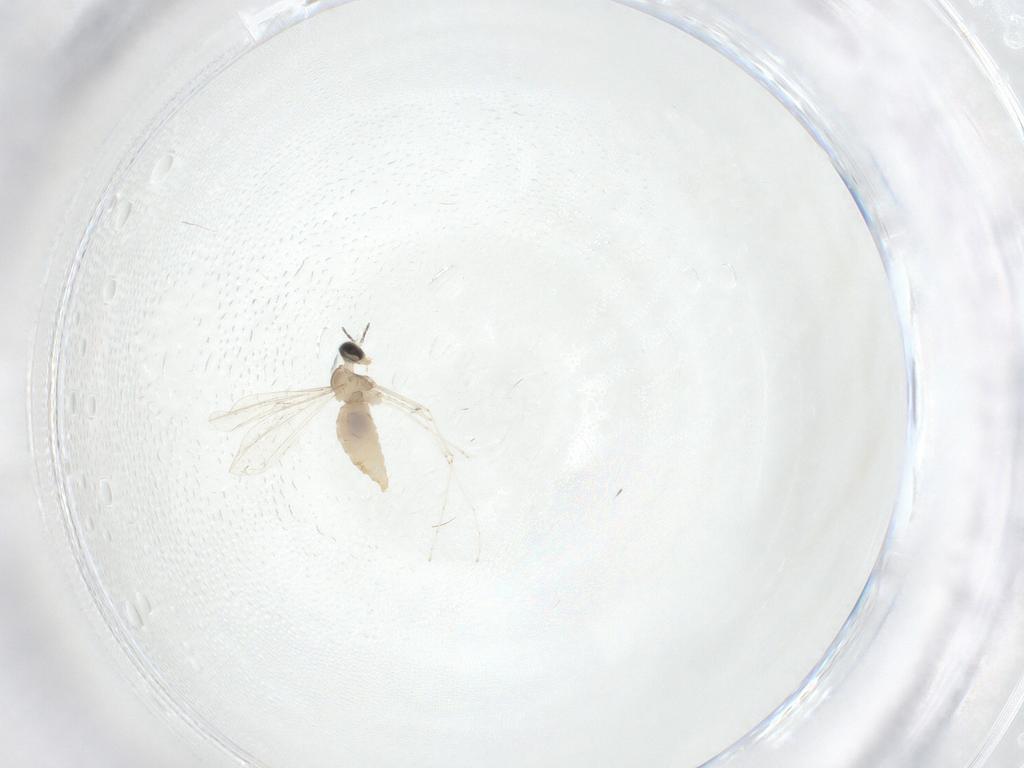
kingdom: Animalia
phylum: Arthropoda
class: Insecta
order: Diptera
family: Cecidomyiidae
